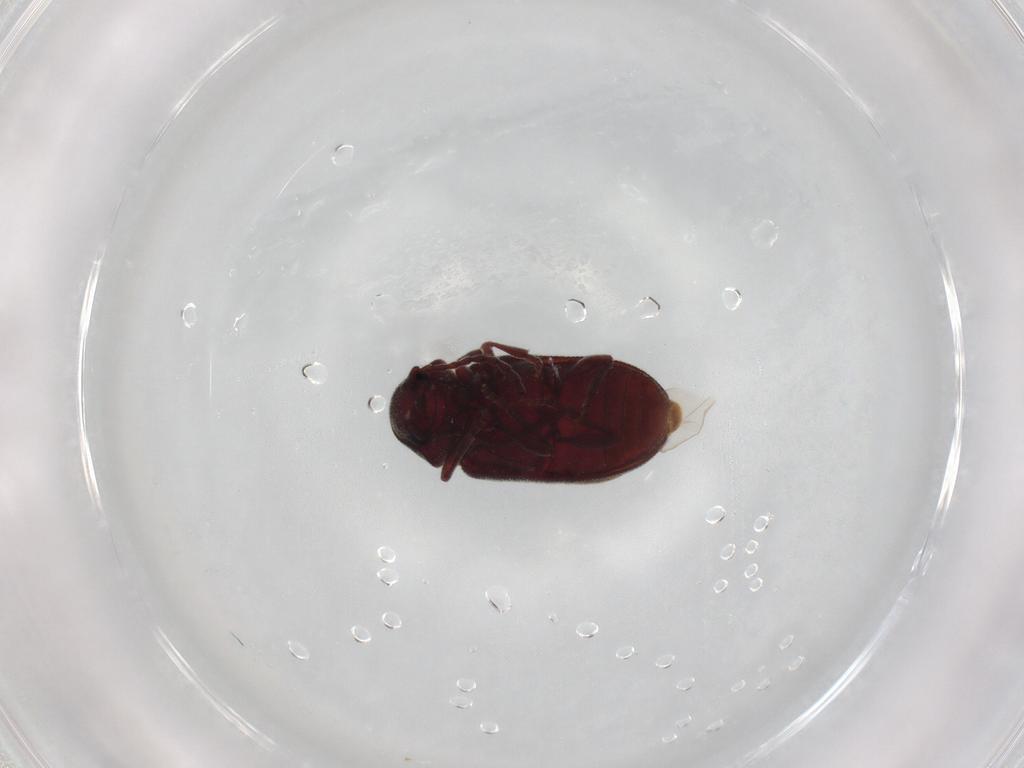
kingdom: Animalia
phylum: Arthropoda
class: Insecta
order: Coleoptera
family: Ptinidae
